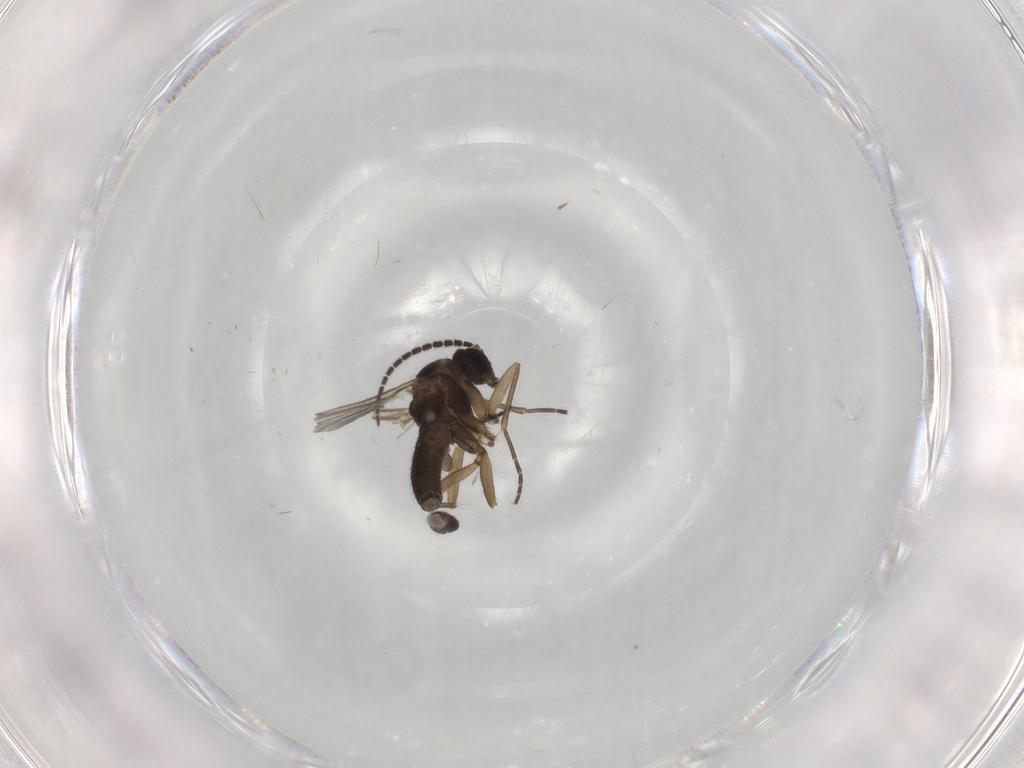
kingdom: Animalia
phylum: Arthropoda
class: Insecta
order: Diptera
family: Sciaridae
